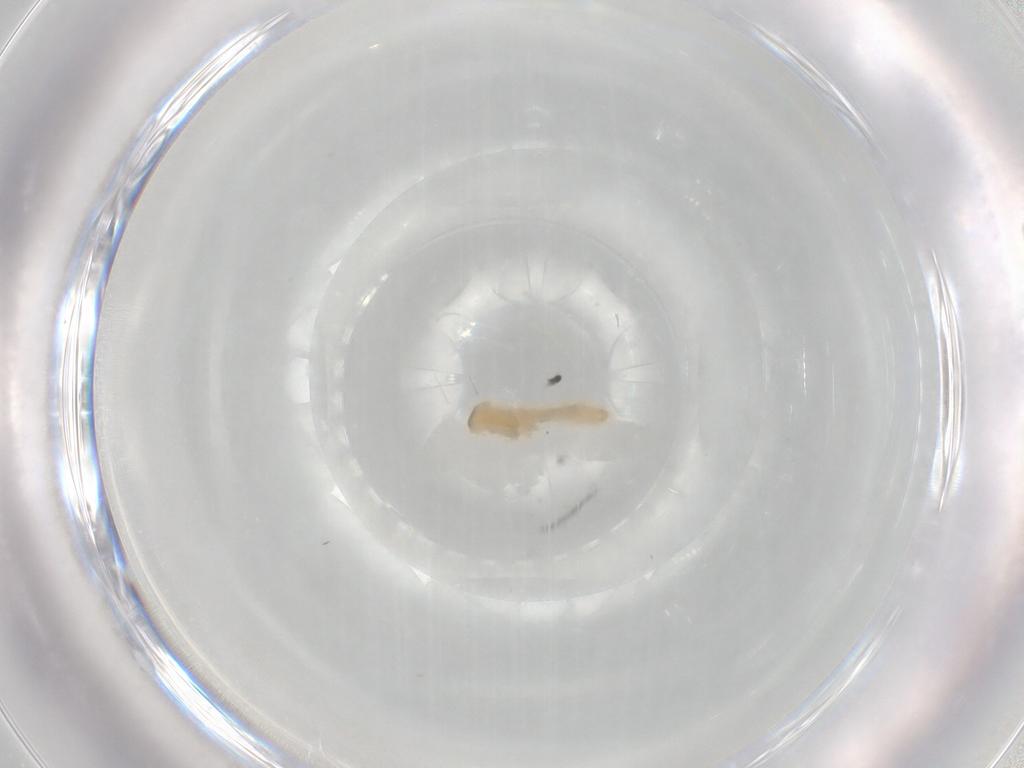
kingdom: Animalia
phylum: Arthropoda
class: Insecta
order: Diptera
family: Cecidomyiidae
